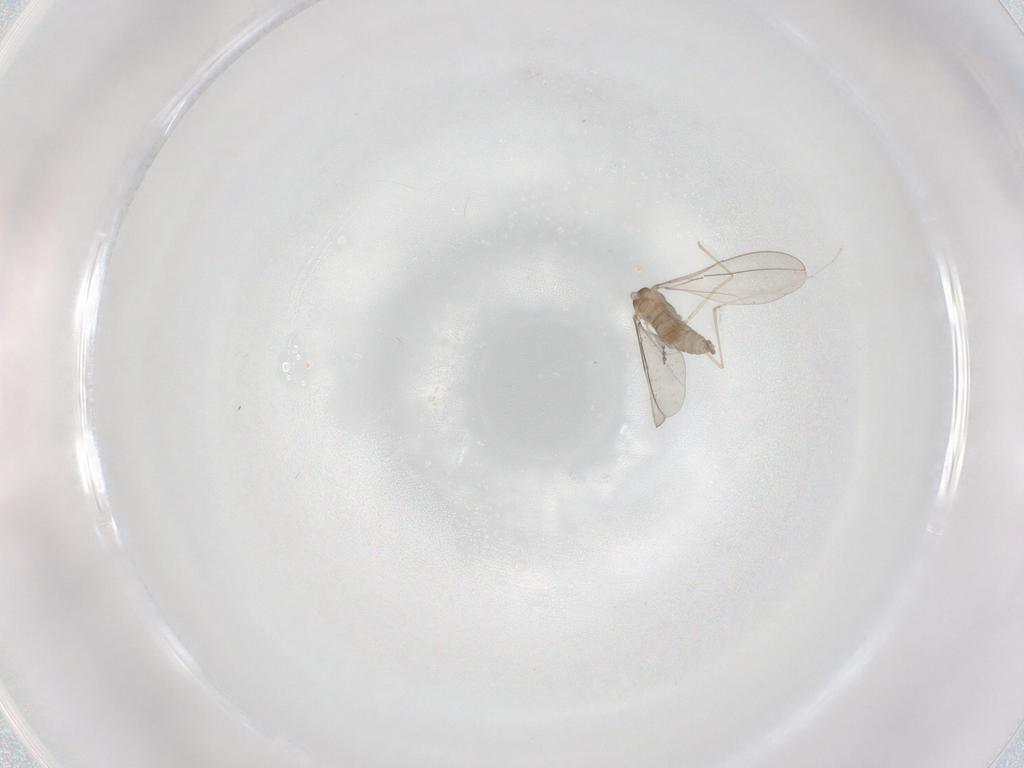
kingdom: Animalia
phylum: Arthropoda
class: Insecta
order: Diptera
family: Cecidomyiidae
